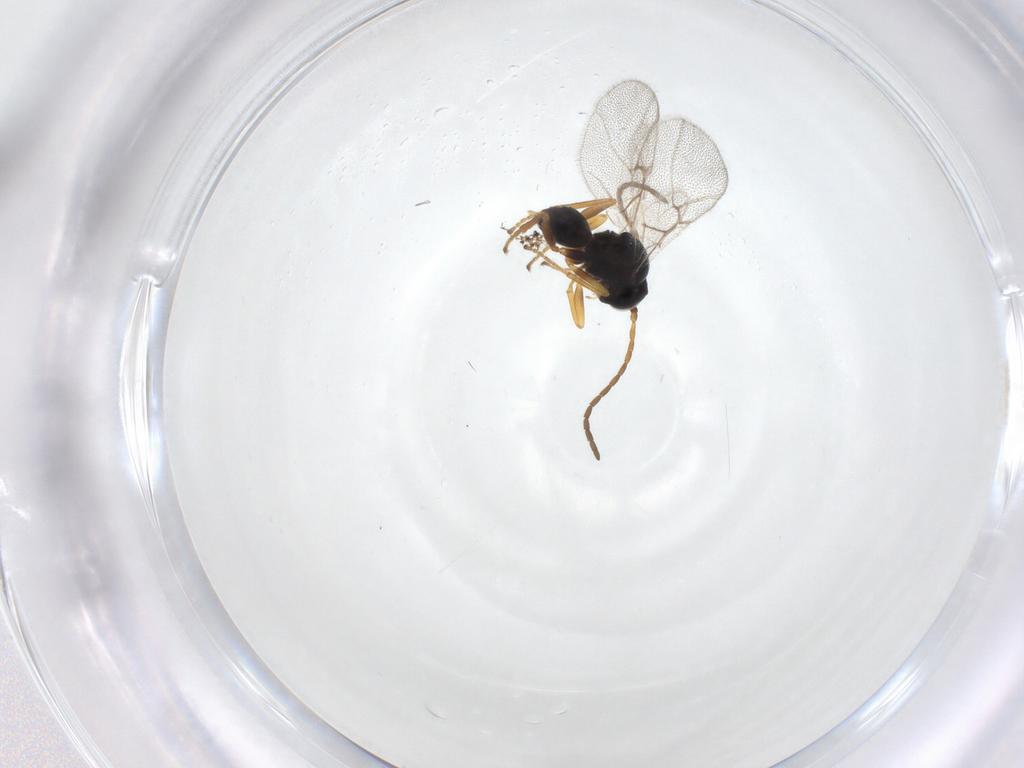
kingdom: Animalia
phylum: Arthropoda
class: Insecta
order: Hymenoptera
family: Cynipidae
